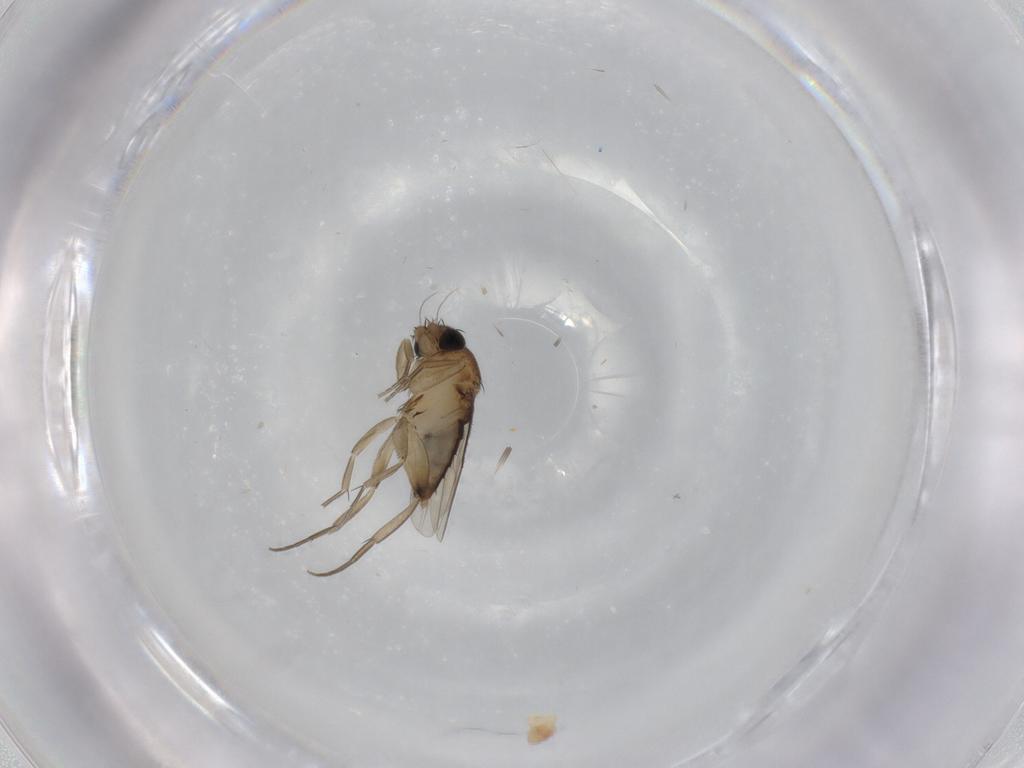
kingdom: Animalia
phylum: Arthropoda
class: Insecta
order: Diptera
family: Phoridae
